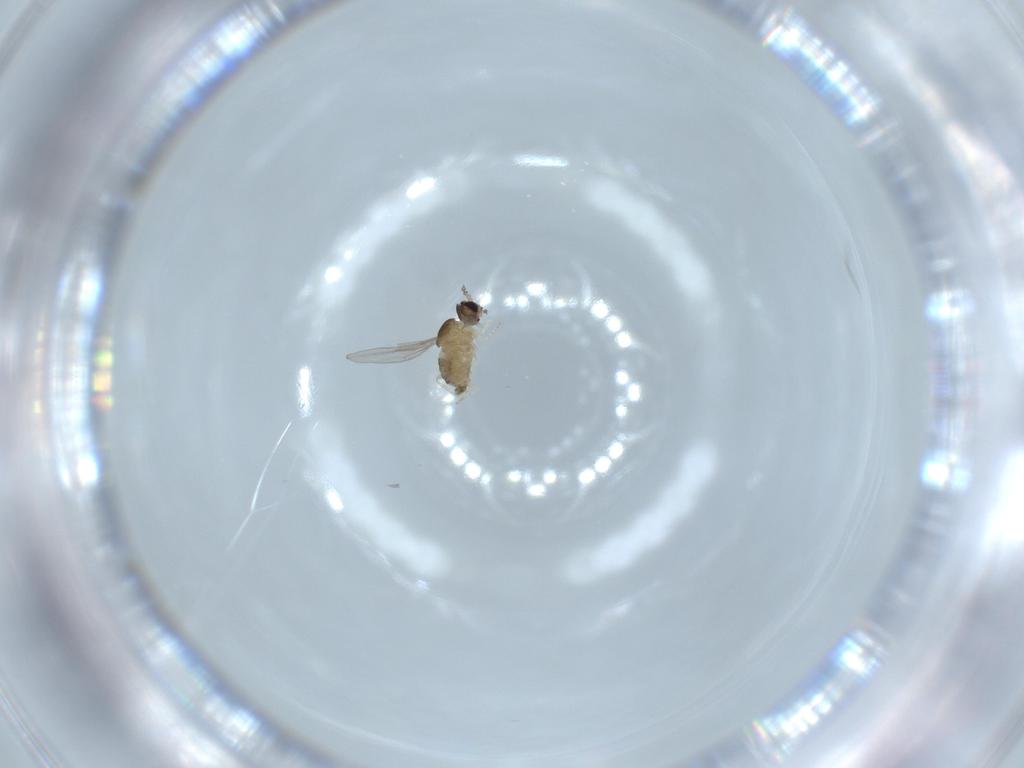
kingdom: Animalia
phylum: Arthropoda
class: Insecta
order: Diptera
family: Cecidomyiidae
